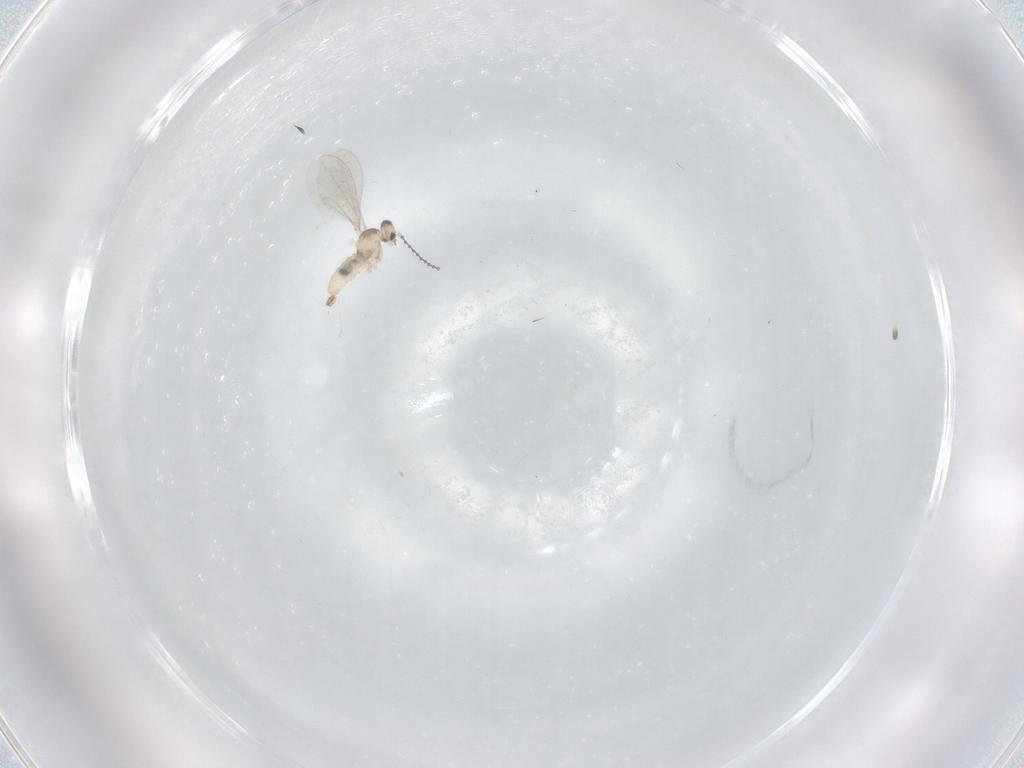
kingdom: Animalia
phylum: Arthropoda
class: Insecta
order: Diptera
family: Cecidomyiidae
